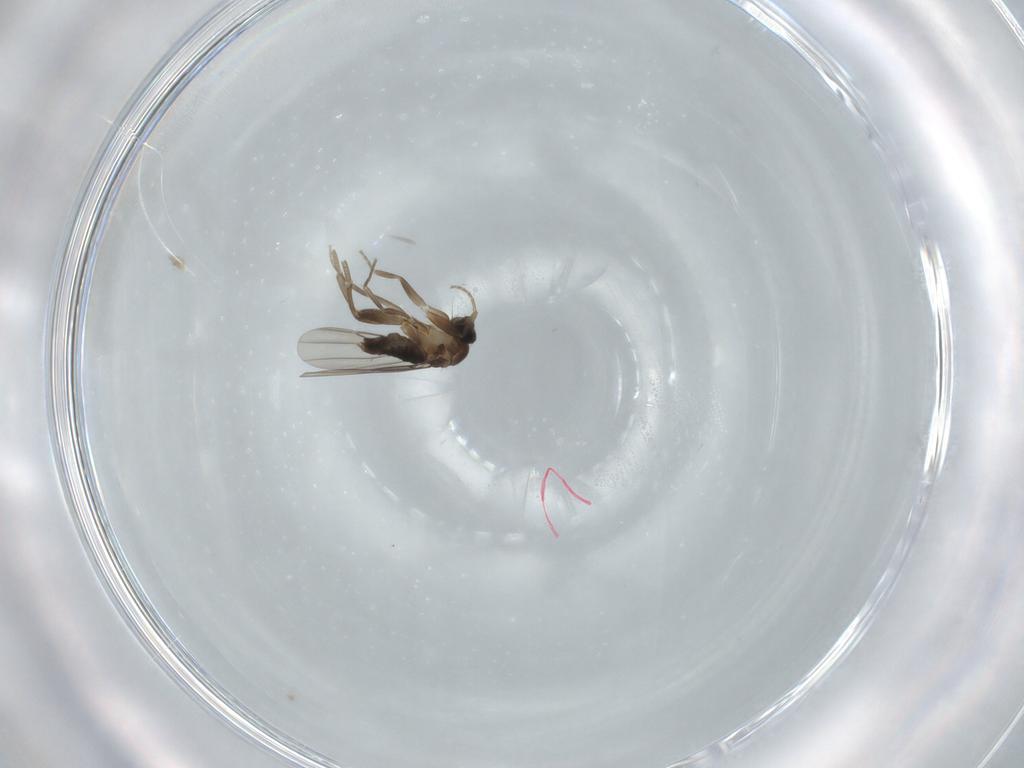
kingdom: Animalia
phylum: Arthropoda
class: Insecta
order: Diptera
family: Phoridae
